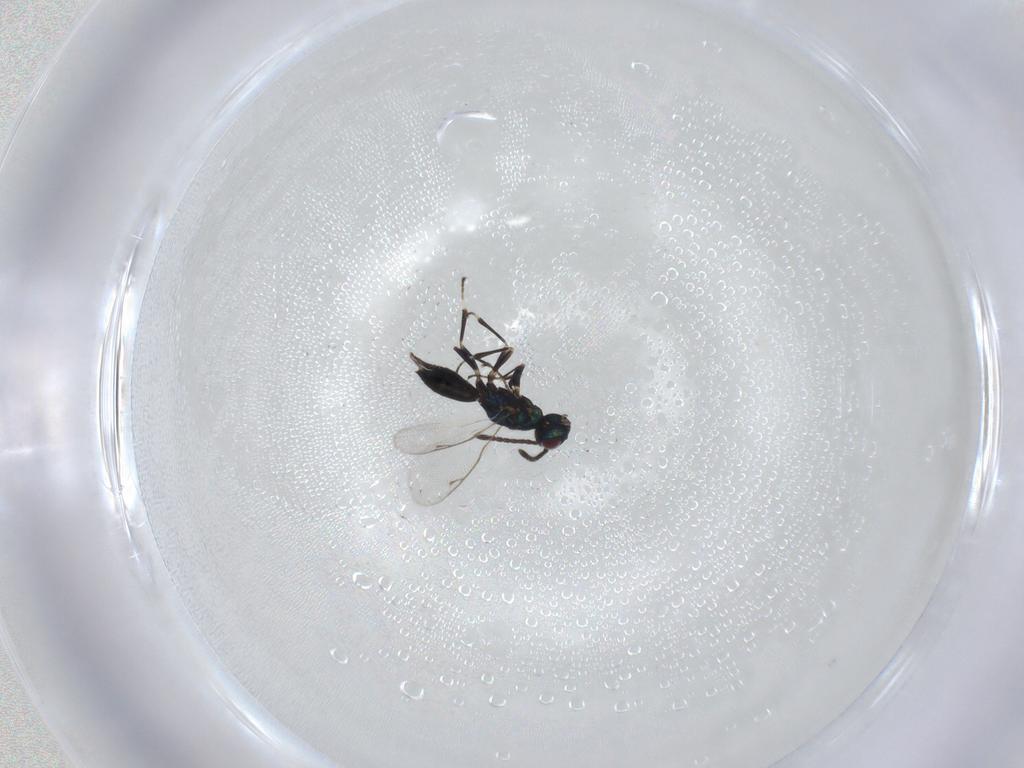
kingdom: Animalia
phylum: Arthropoda
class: Insecta
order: Hymenoptera
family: Eupelmidae
